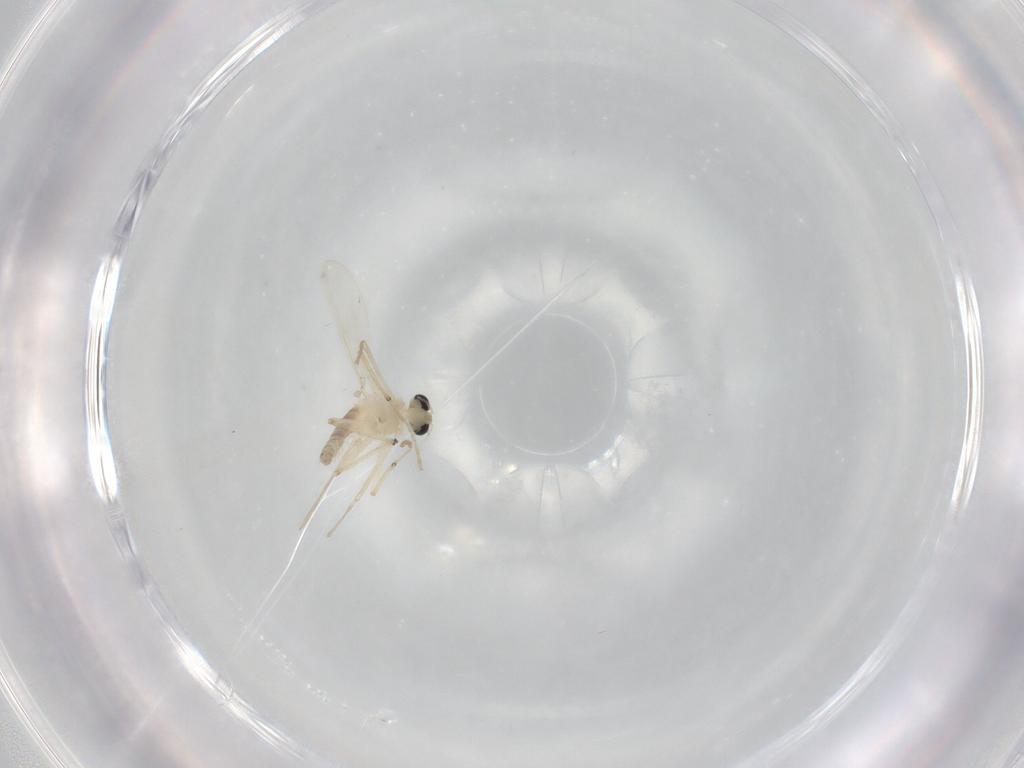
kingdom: Animalia
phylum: Arthropoda
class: Insecta
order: Diptera
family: Chironomidae
